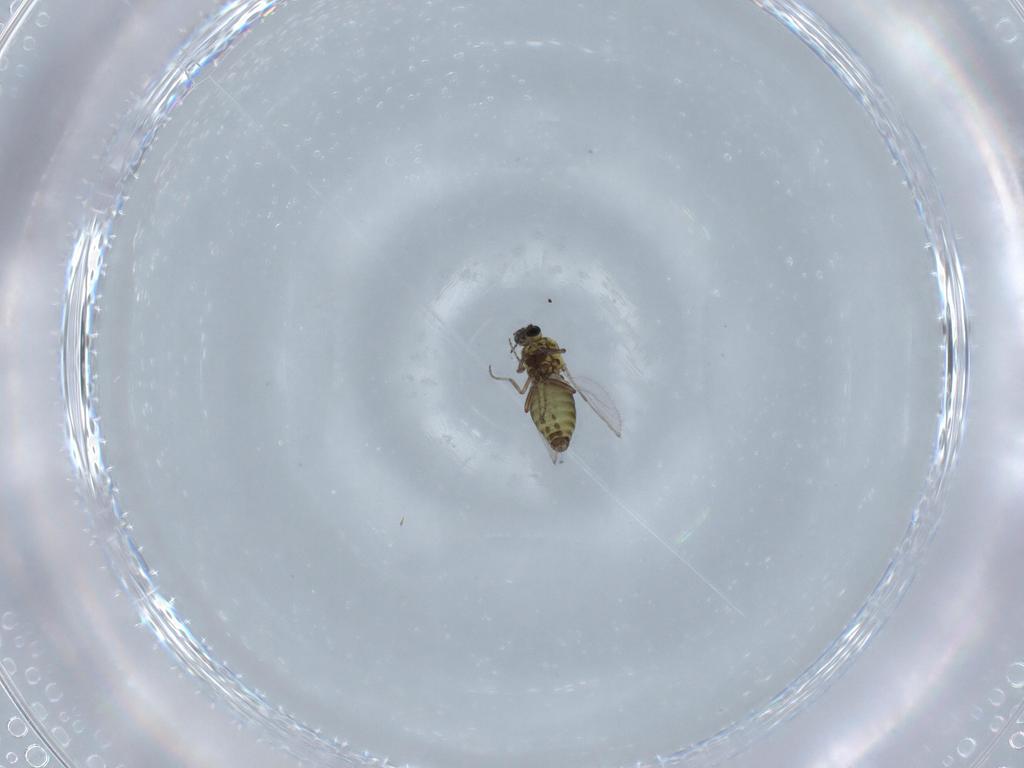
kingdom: Animalia
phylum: Arthropoda
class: Insecta
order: Diptera
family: Ceratopogonidae
